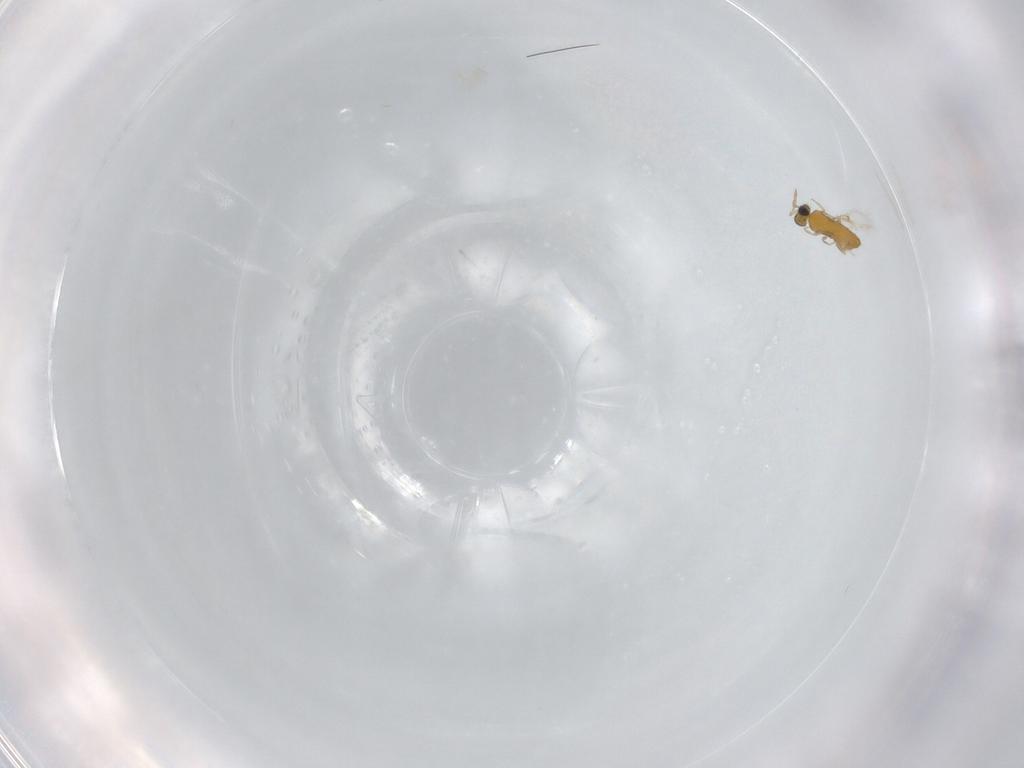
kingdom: Animalia
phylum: Arthropoda
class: Insecta
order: Hymenoptera
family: Trichogrammatidae
